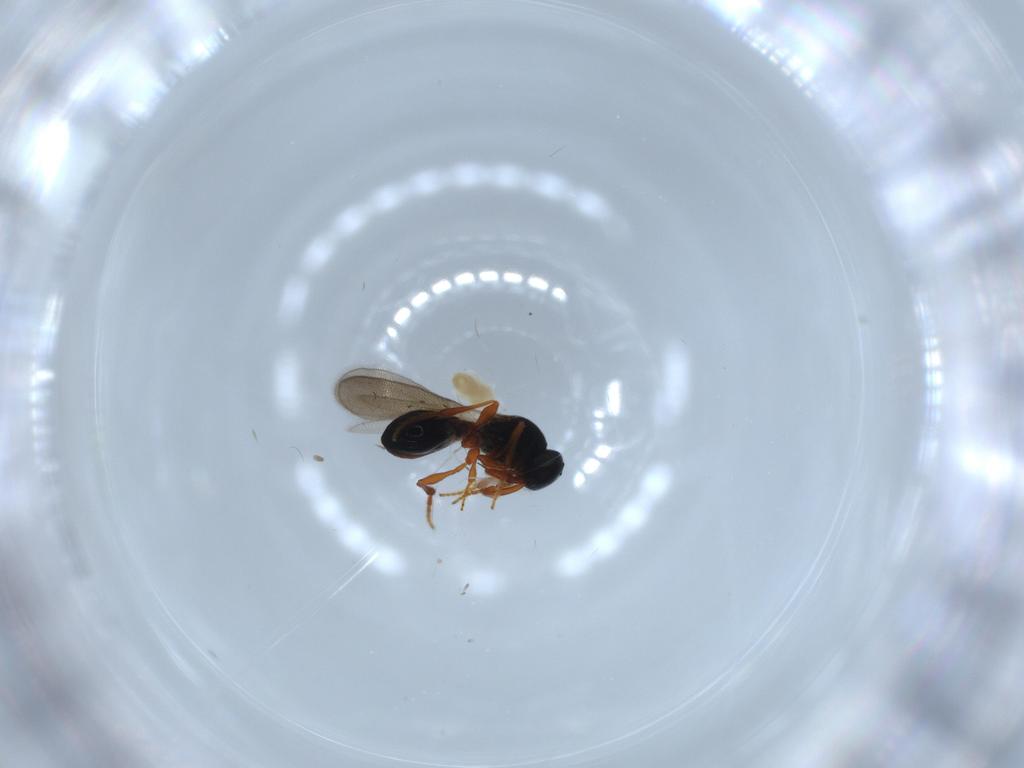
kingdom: Animalia
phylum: Arthropoda
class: Insecta
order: Hymenoptera
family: Platygastridae
